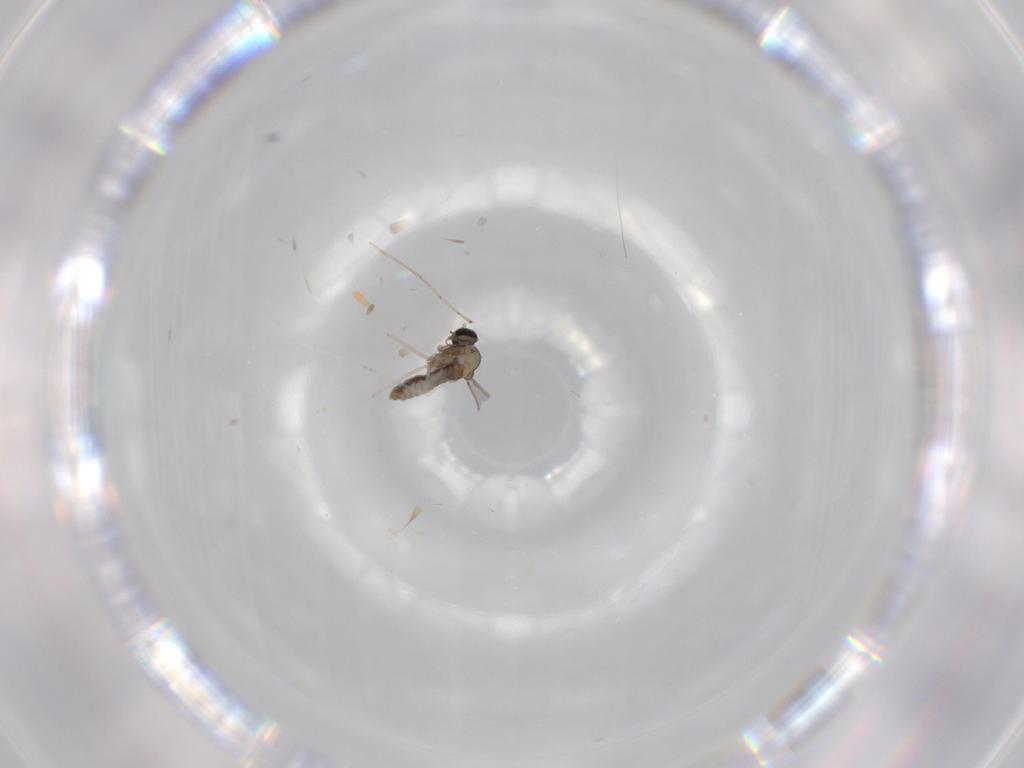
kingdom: Animalia
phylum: Arthropoda
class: Insecta
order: Diptera
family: Cecidomyiidae
